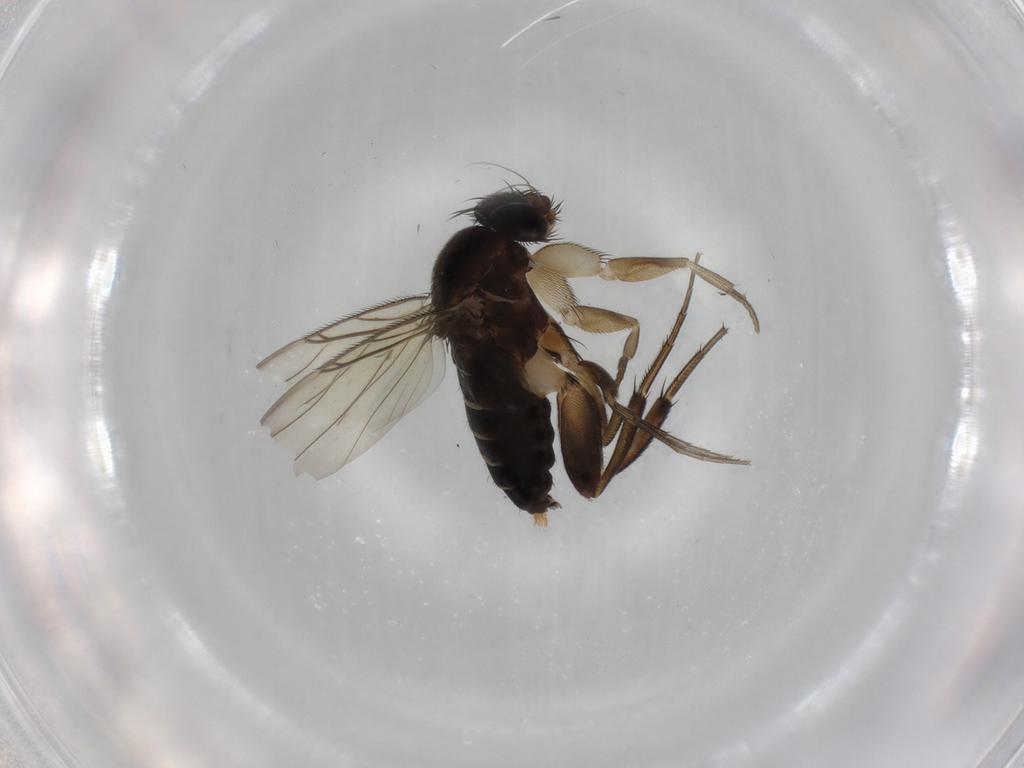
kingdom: Animalia
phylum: Arthropoda
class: Insecta
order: Diptera
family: Phoridae
